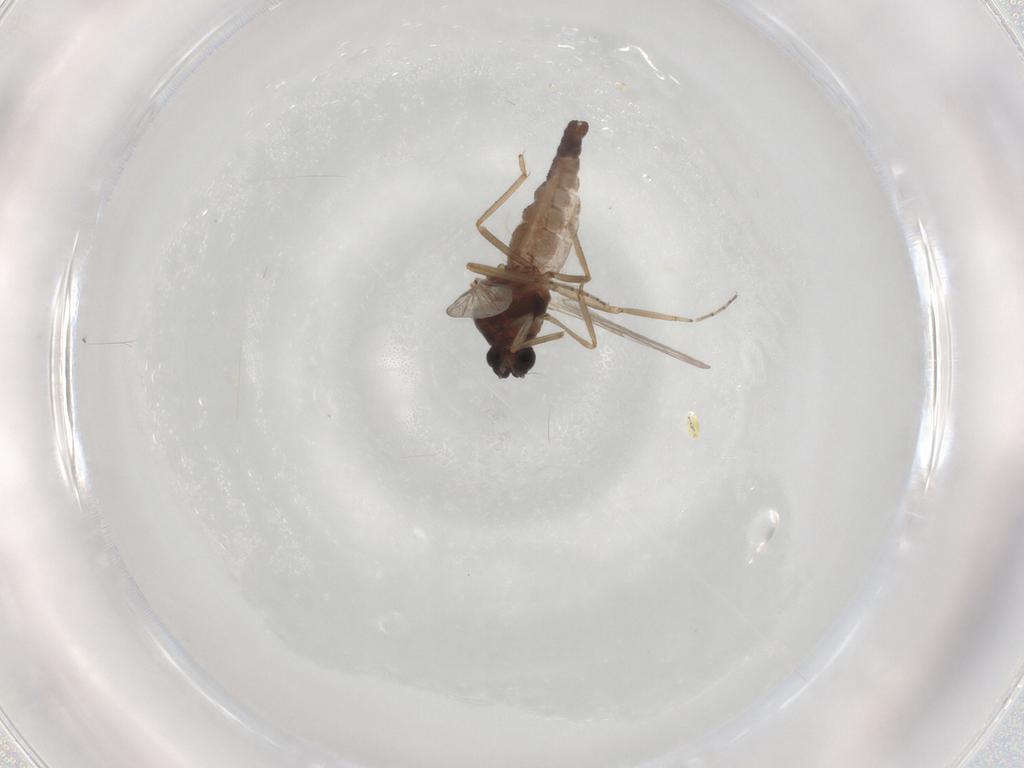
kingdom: Animalia
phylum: Arthropoda
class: Insecta
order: Diptera
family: Ceratopogonidae
